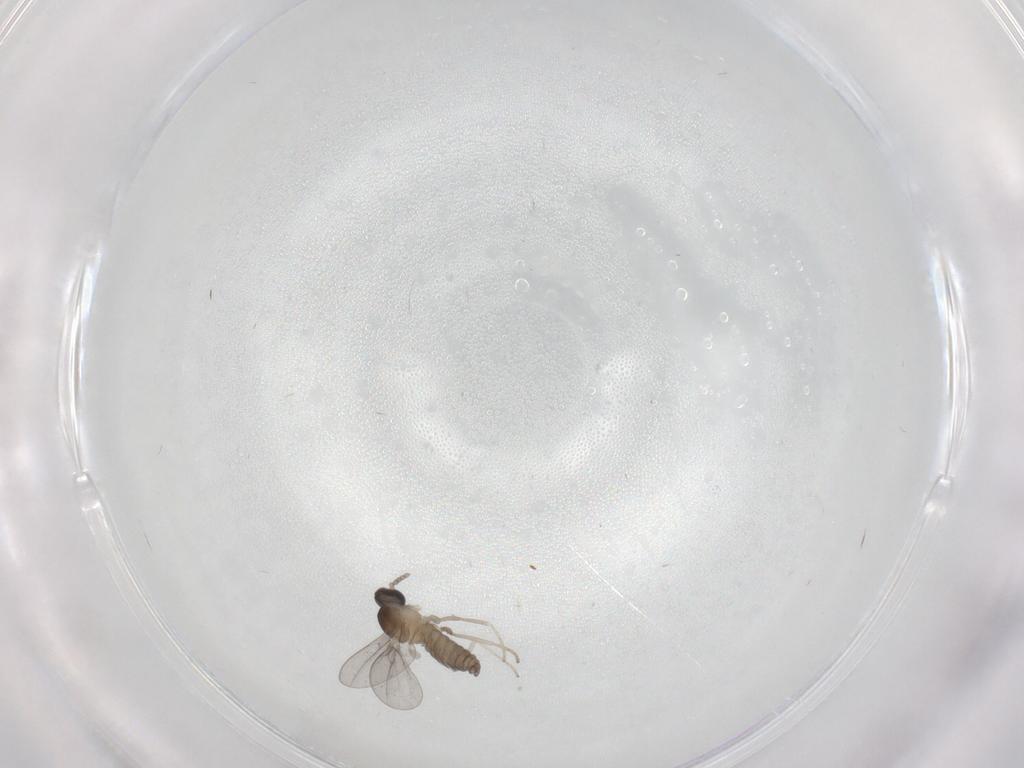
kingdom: Animalia
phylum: Arthropoda
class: Insecta
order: Diptera
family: Cecidomyiidae
